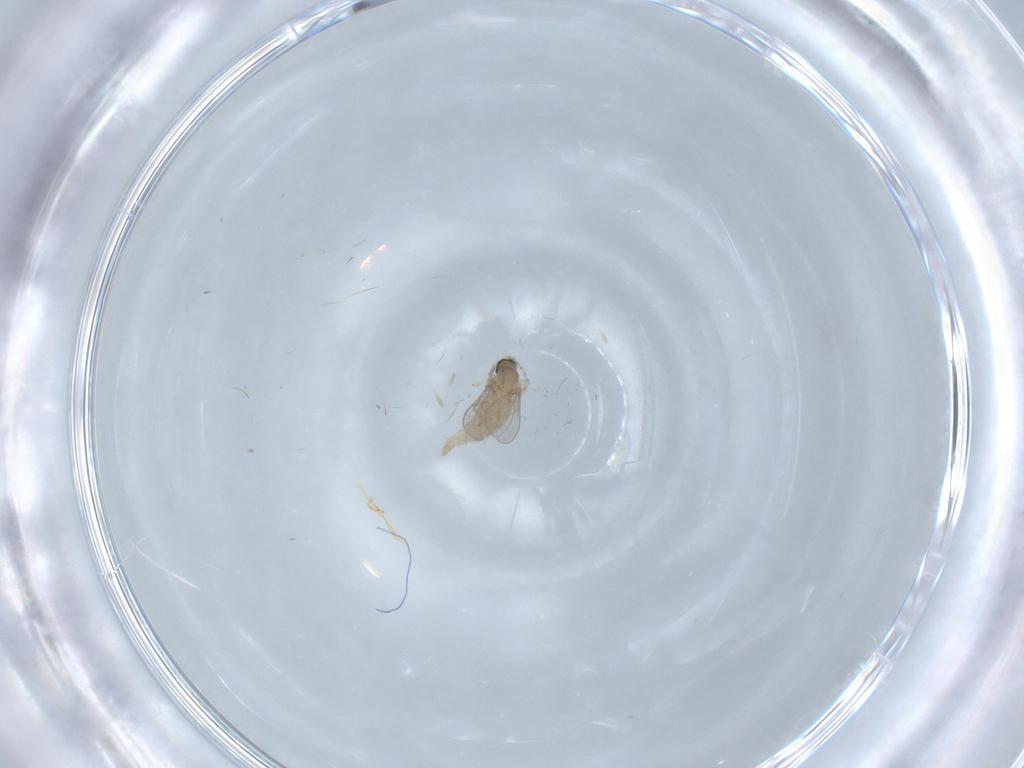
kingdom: Animalia
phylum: Arthropoda
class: Insecta
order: Diptera
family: Cecidomyiidae
